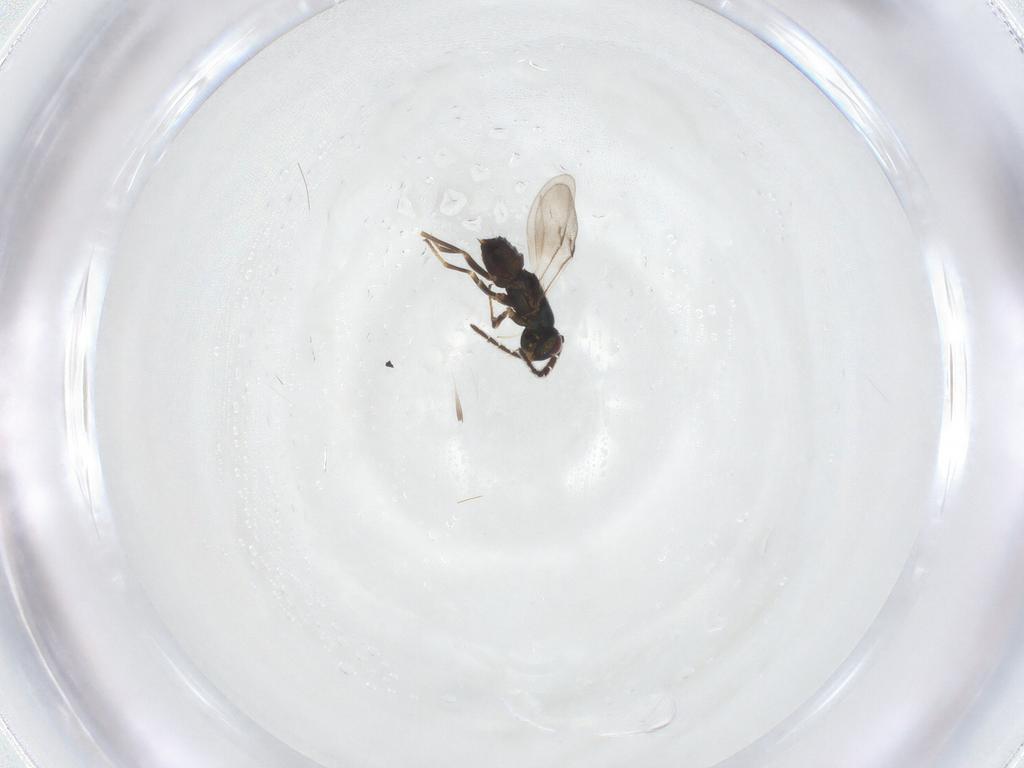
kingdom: Animalia
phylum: Arthropoda
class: Insecta
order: Hymenoptera
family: Encyrtidae
